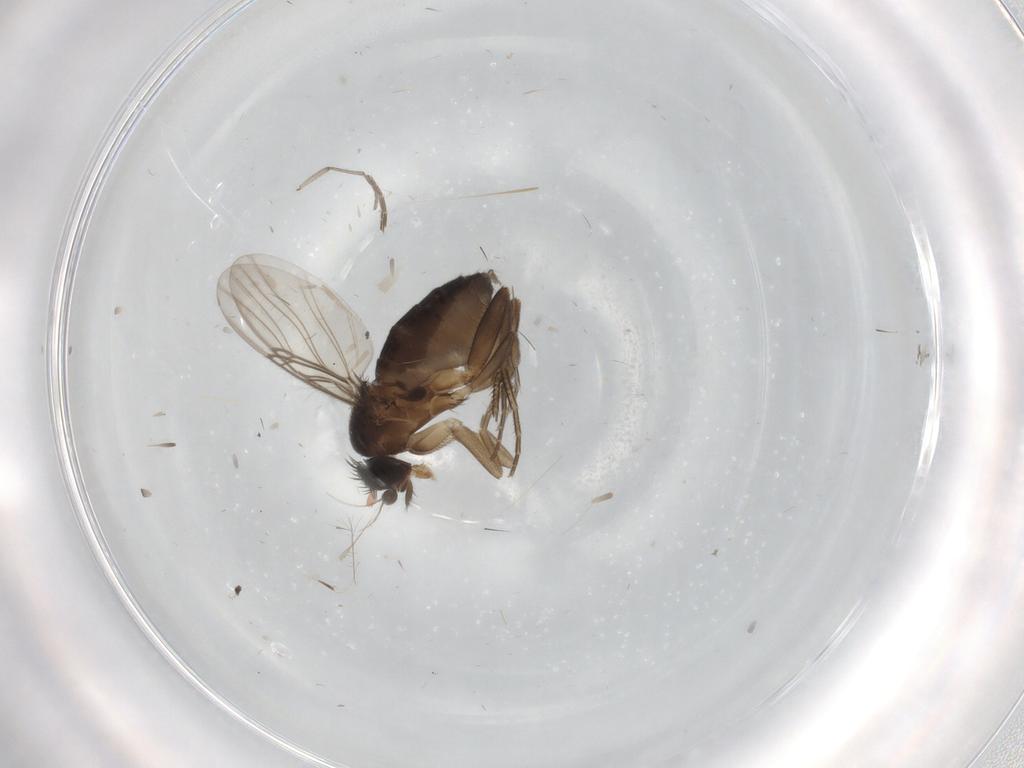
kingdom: Animalia
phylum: Arthropoda
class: Insecta
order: Diptera
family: Phoridae
